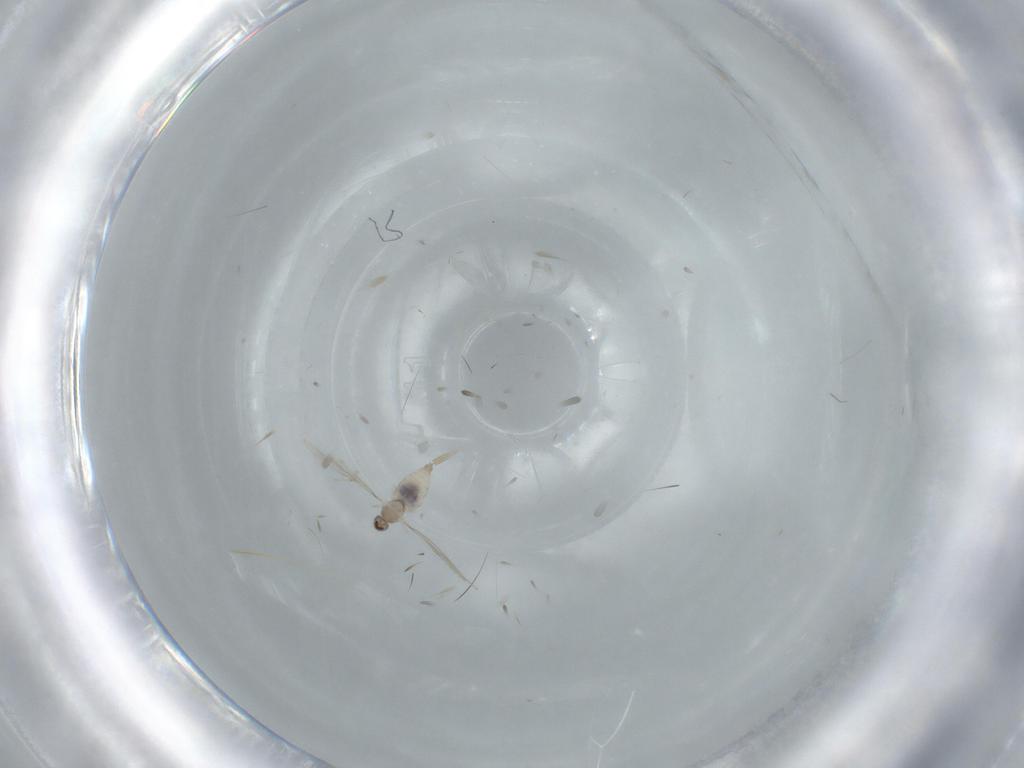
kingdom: Animalia
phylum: Arthropoda
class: Insecta
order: Diptera
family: Cecidomyiidae
